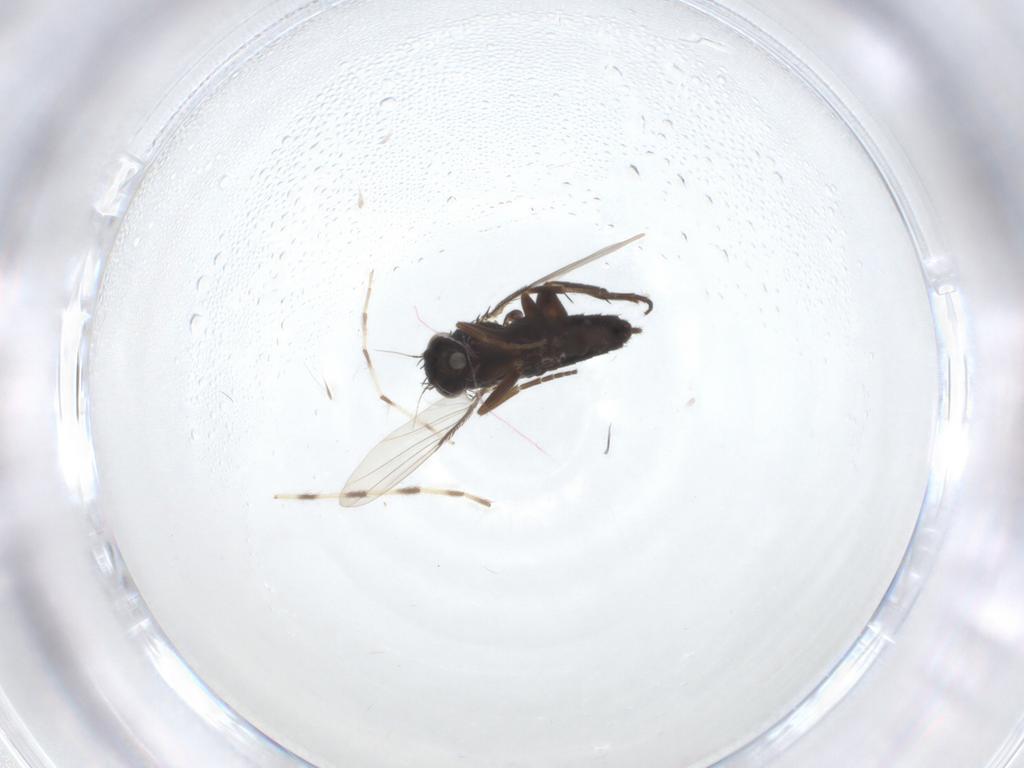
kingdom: Animalia
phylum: Arthropoda
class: Insecta
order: Diptera
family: Phoridae
